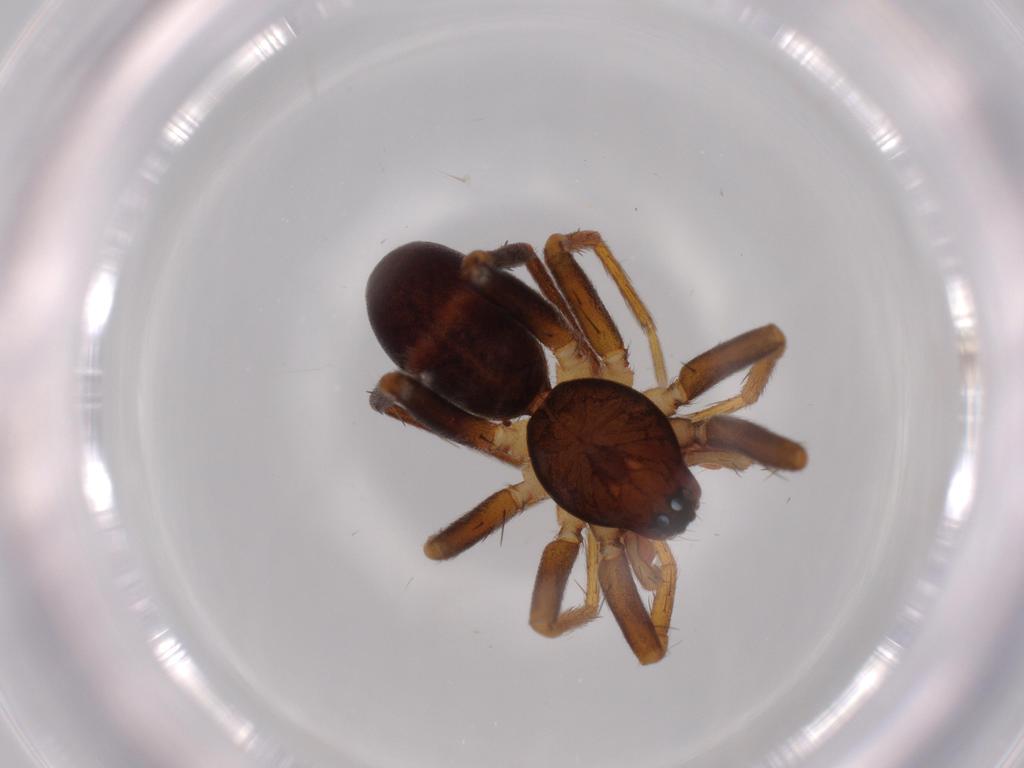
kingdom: Animalia
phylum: Arthropoda
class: Arachnida
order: Araneae
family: Corinnidae
